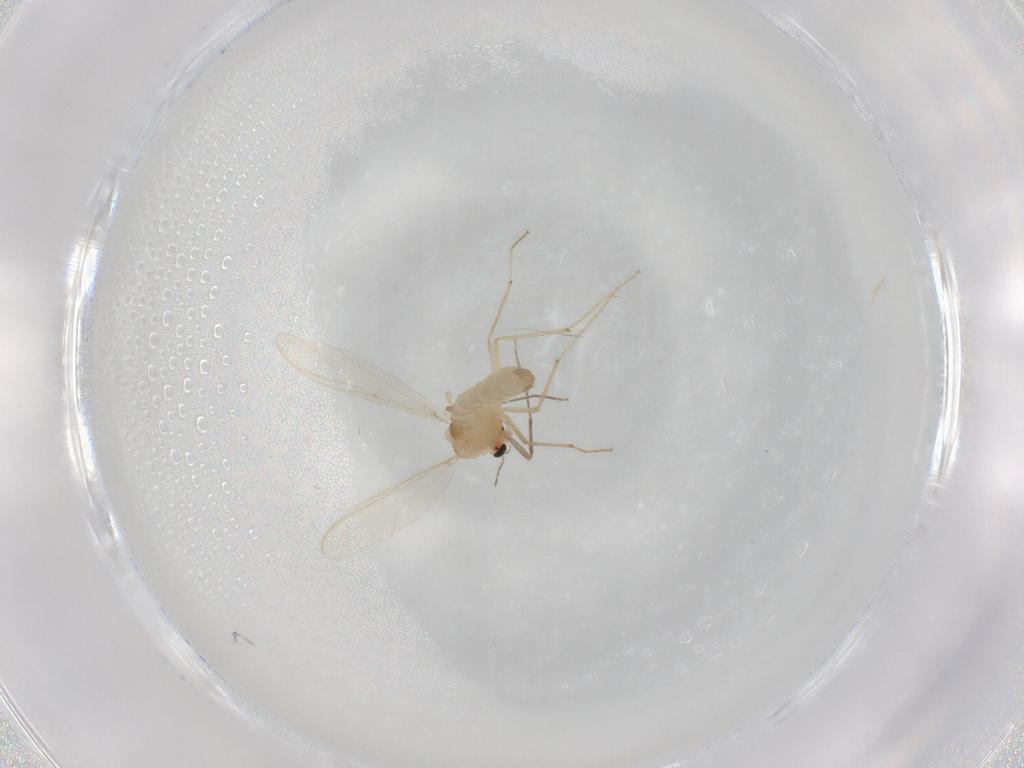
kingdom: Animalia
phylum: Arthropoda
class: Insecta
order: Diptera
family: Chironomidae
